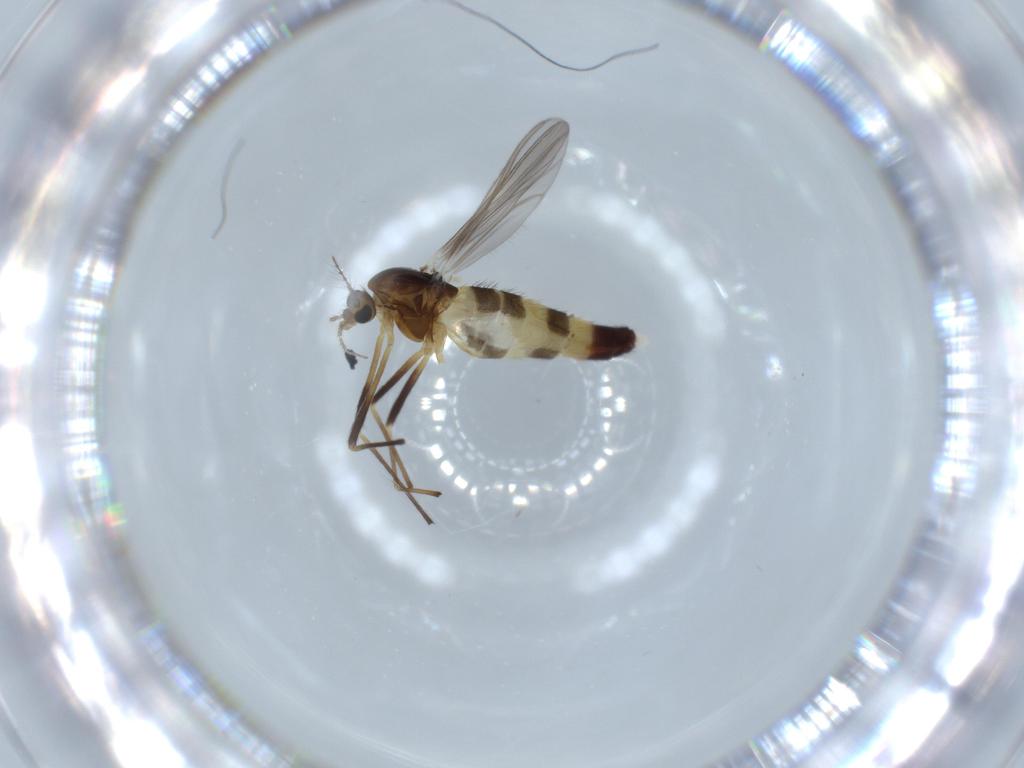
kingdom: Animalia
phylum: Arthropoda
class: Insecta
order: Diptera
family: Chironomidae
